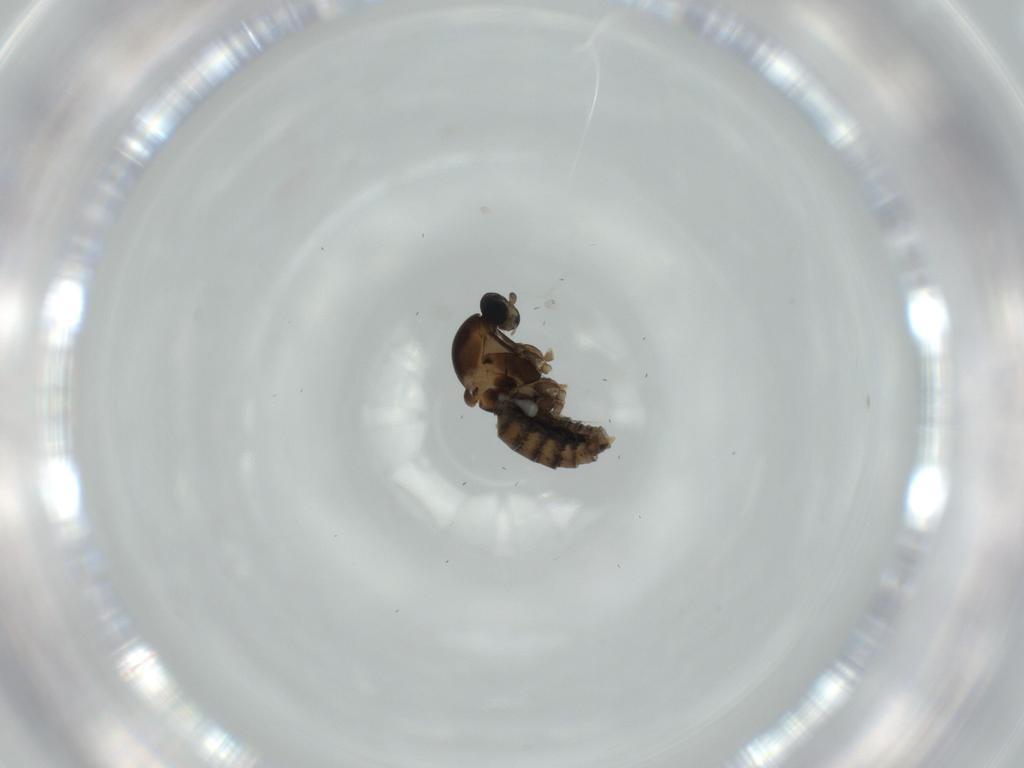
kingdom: Animalia
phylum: Arthropoda
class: Insecta
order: Diptera
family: Cecidomyiidae
